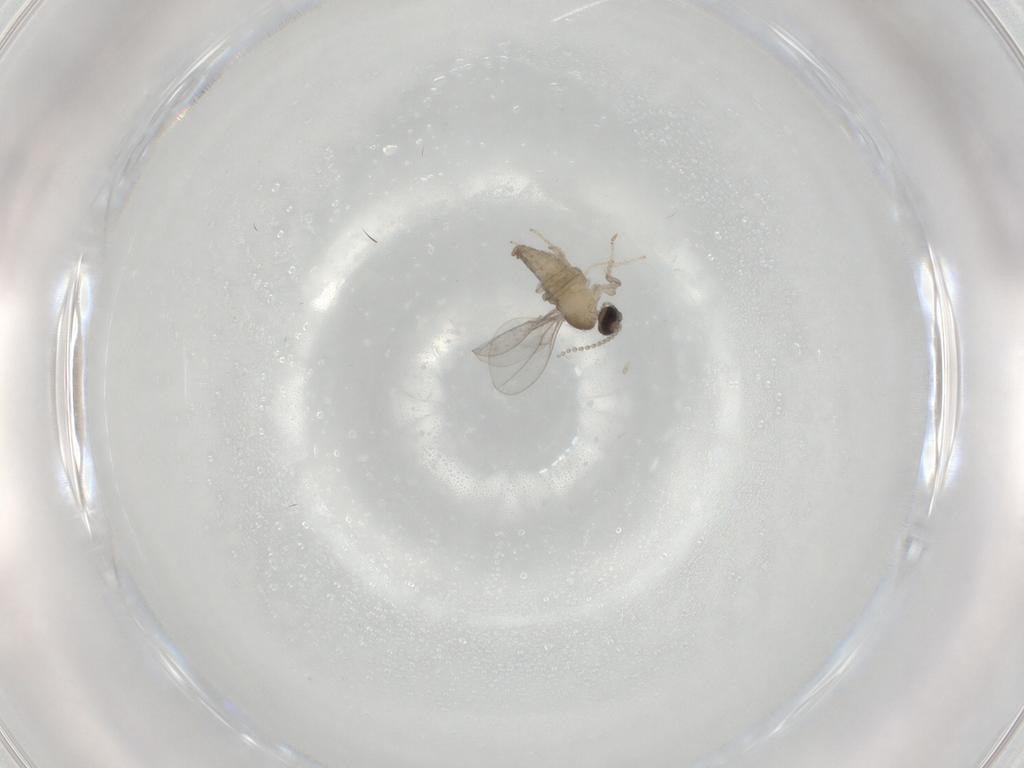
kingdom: Animalia
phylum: Arthropoda
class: Insecta
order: Diptera
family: Cecidomyiidae
